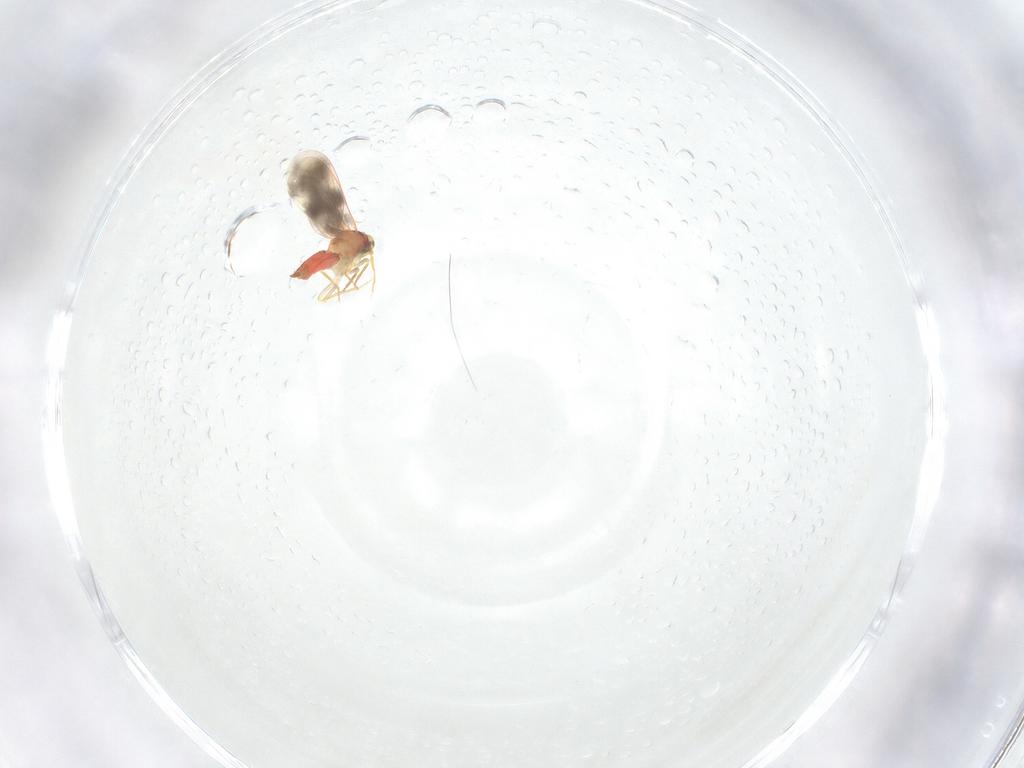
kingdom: Animalia
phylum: Arthropoda
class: Insecta
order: Hemiptera
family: Aleyrodidae
